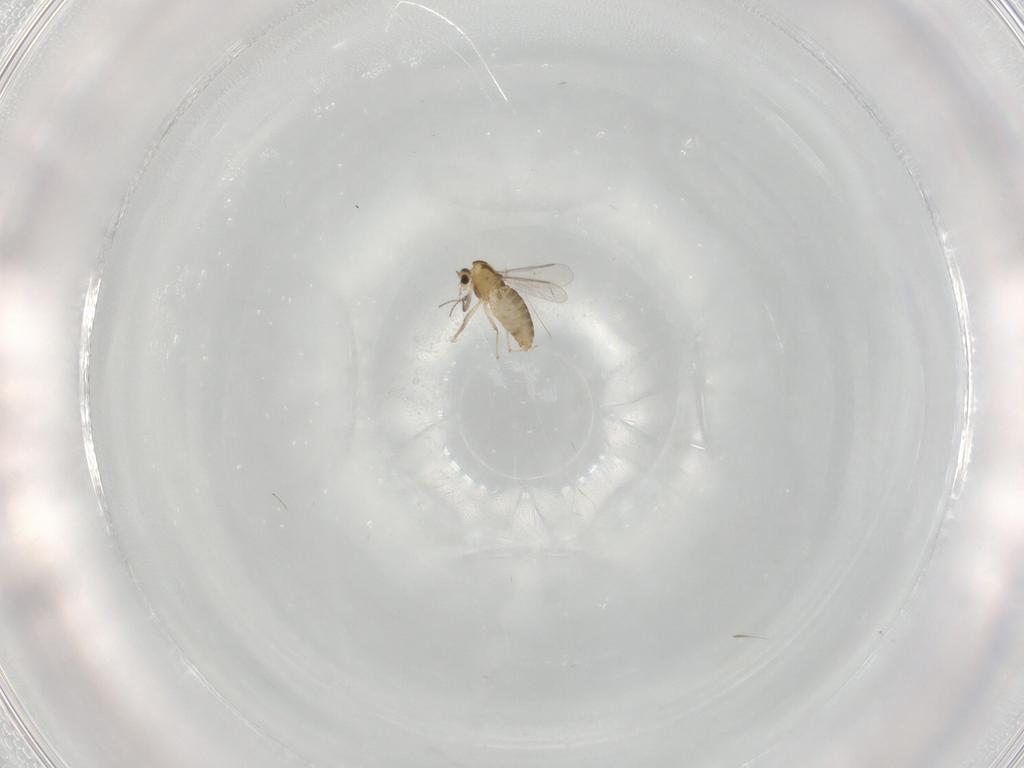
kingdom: Animalia
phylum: Arthropoda
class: Insecta
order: Diptera
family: Chironomidae
